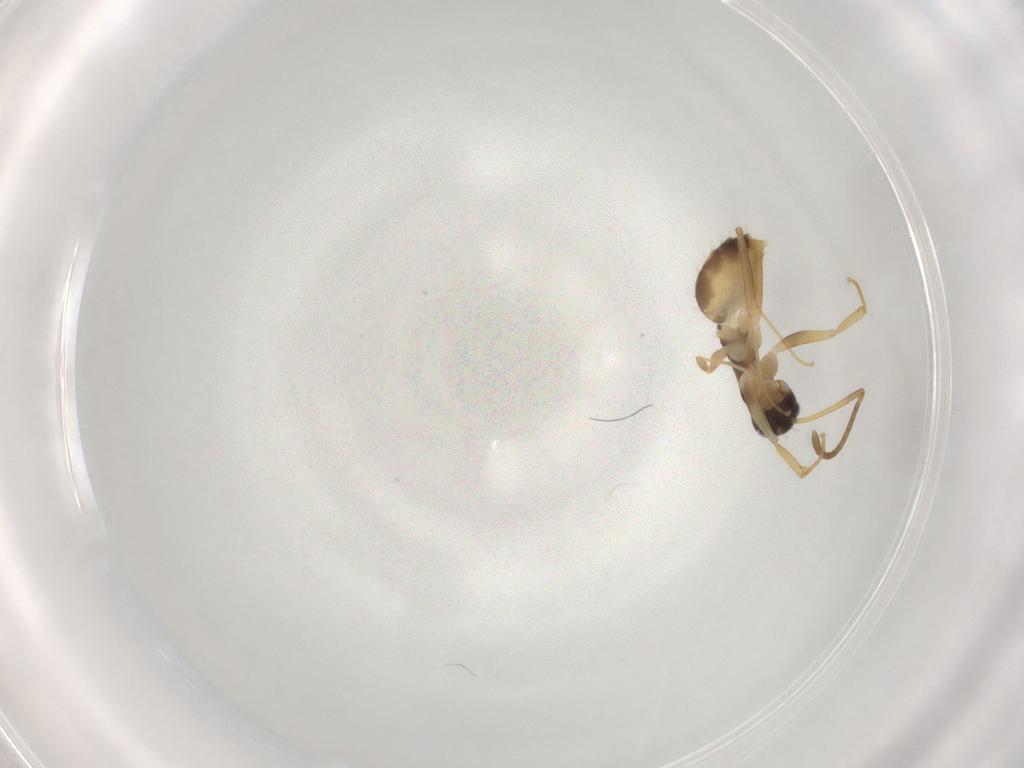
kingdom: Animalia
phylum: Arthropoda
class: Insecta
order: Hymenoptera
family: Formicidae
